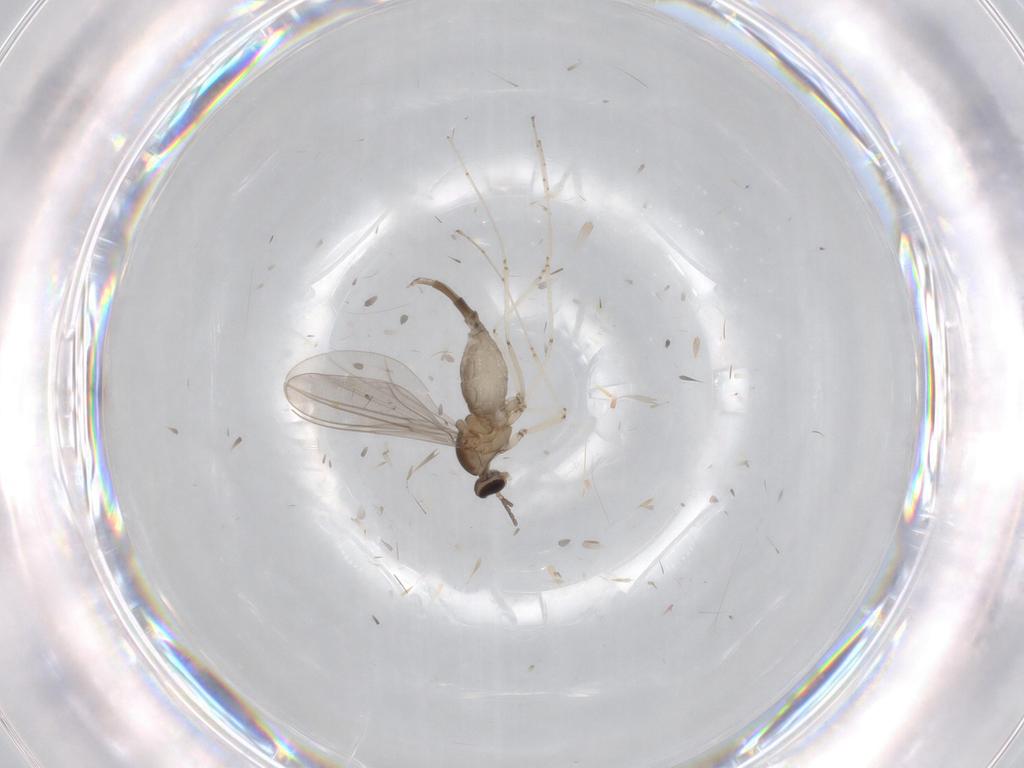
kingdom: Animalia
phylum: Arthropoda
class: Insecta
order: Diptera
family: Cecidomyiidae
